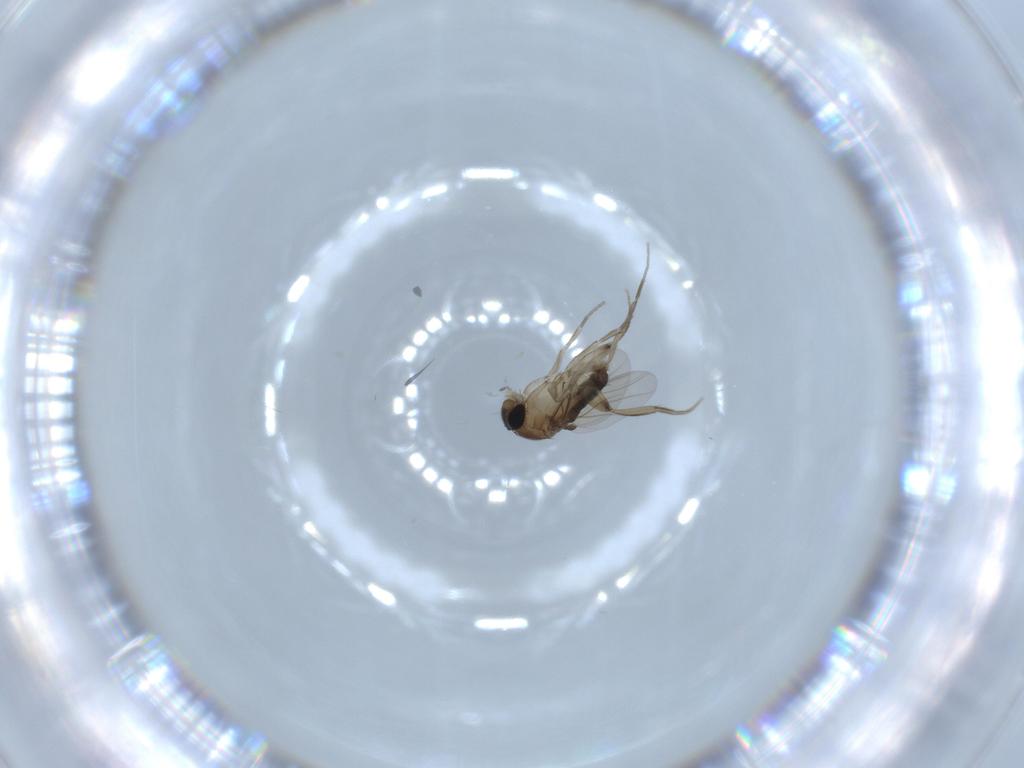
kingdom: Animalia
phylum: Arthropoda
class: Insecta
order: Diptera
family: Phoridae
